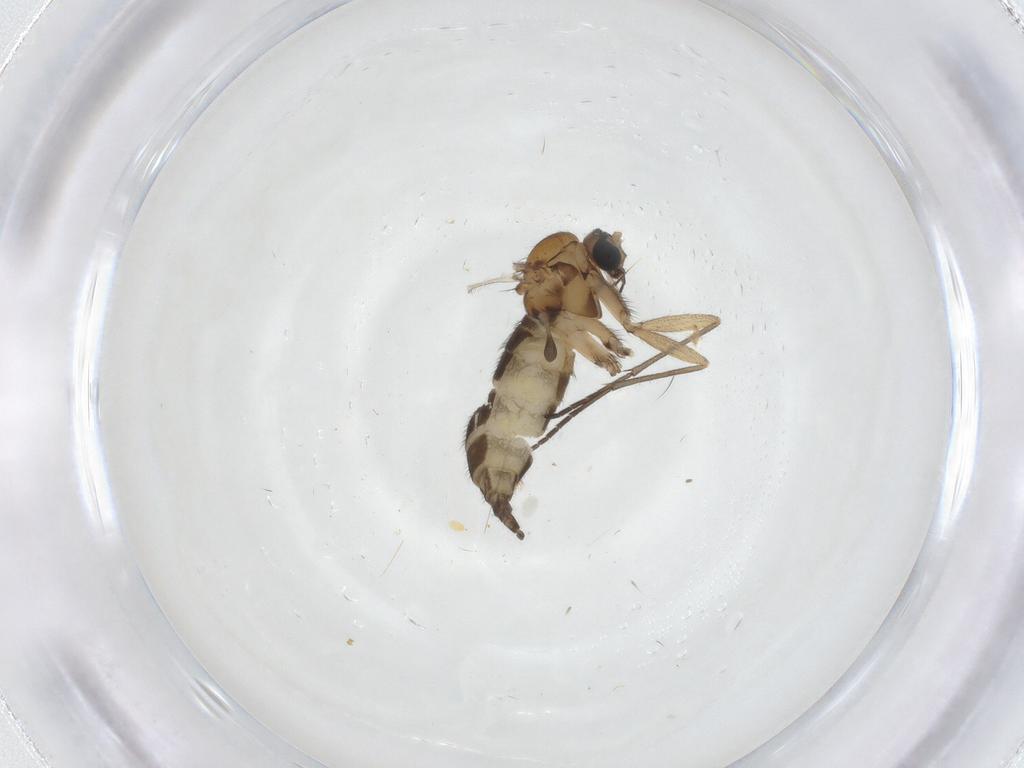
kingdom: Animalia
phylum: Arthropoda
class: Insecta
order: Diptera
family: Sciaridae
